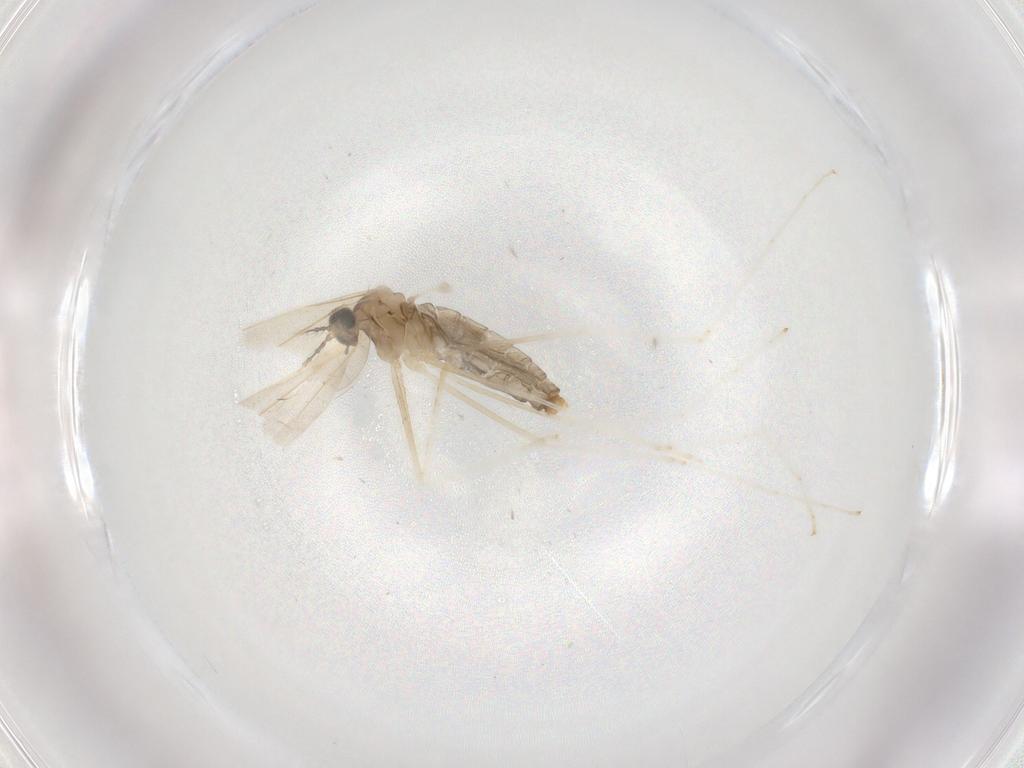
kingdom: Animalia
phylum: Arthropoda
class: Insecta
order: Diptera
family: Cecidomyiidae
